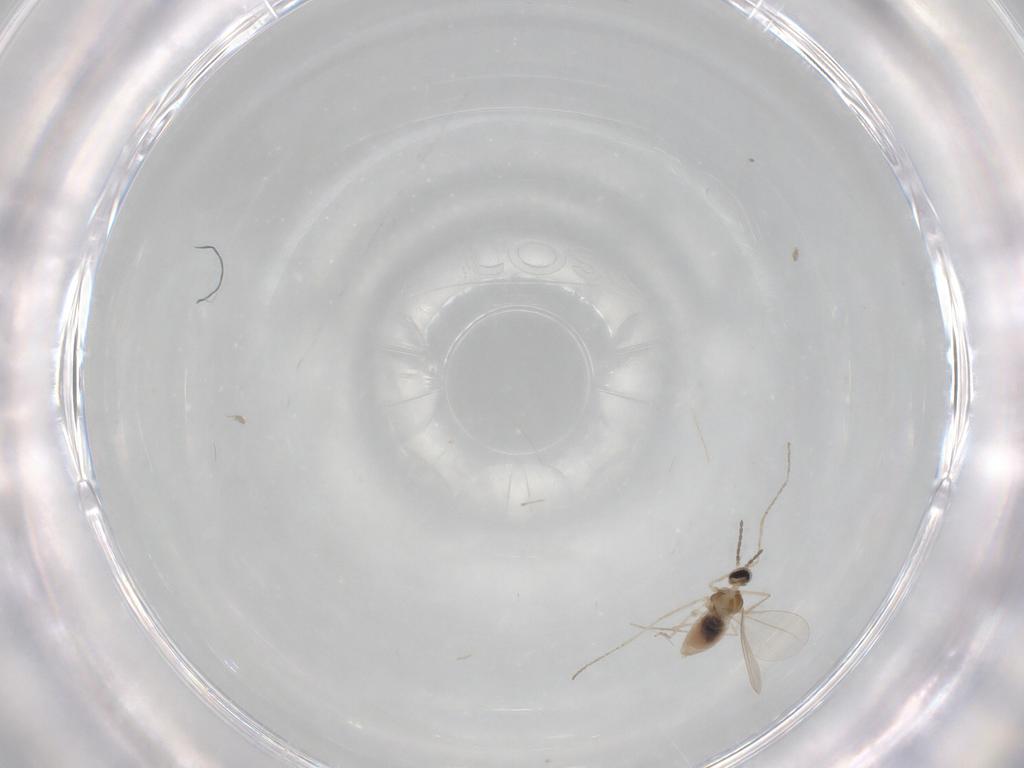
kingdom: Animalia
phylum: Arthropoda
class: Insecta
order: Diptera
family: Cecidomyiidae
